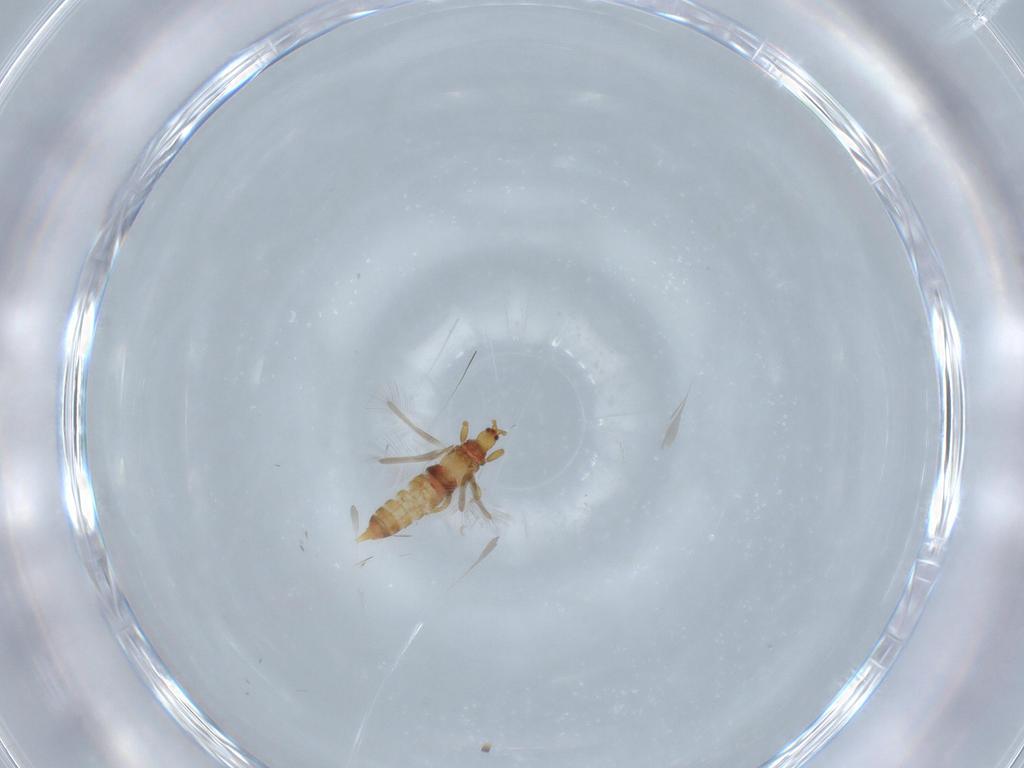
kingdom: Animalia
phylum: Arthropoda
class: Insecta
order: Thysanoptera
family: Phlaeothripidae
